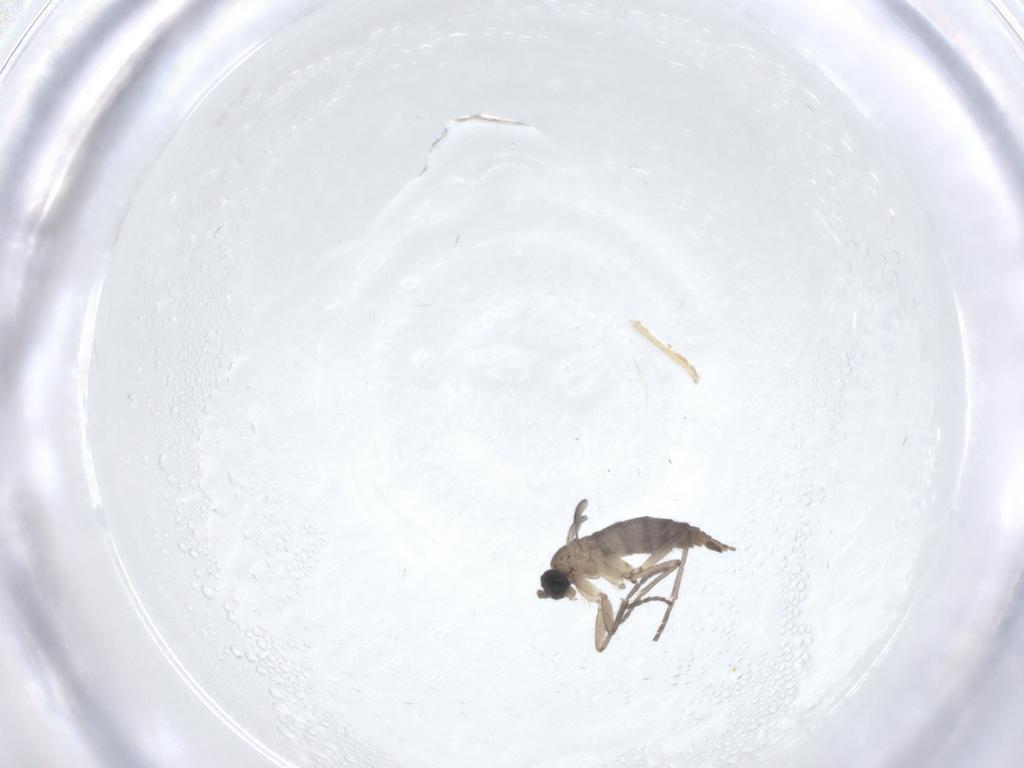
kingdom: Animalia
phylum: Arthropoda
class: Insecta
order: Diptera
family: Sciaridae
